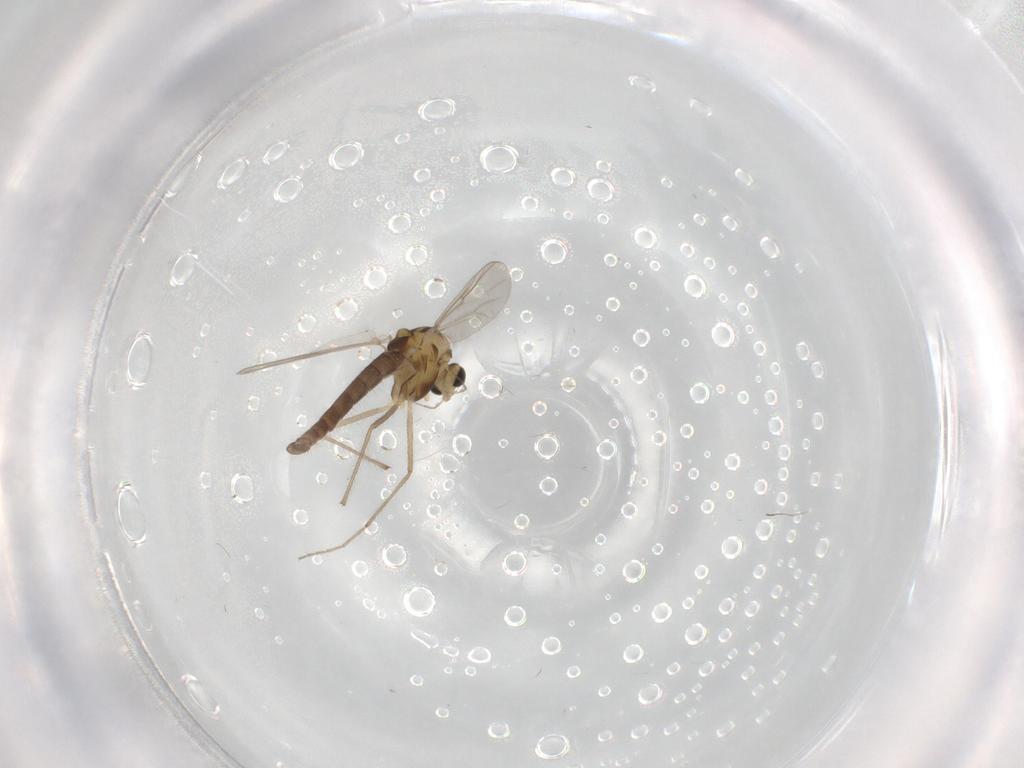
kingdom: Animalia
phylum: Arthropoda
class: Insecta
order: Diptera
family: Chironomidae
